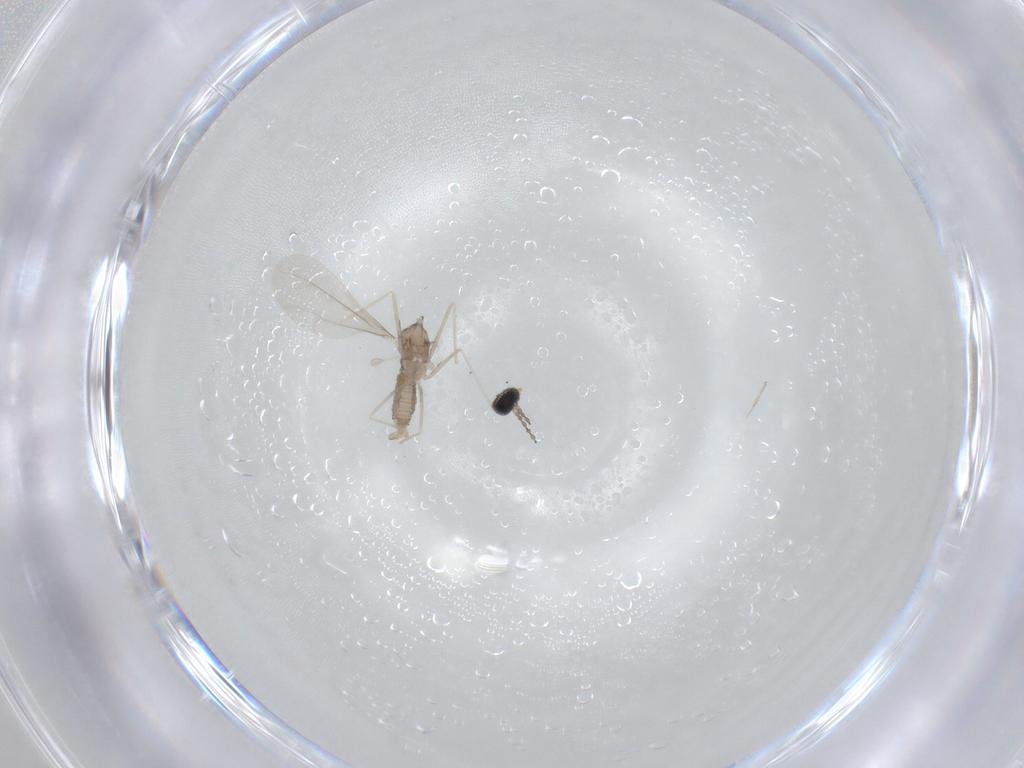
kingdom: Animalia
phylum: Arthropoda
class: Insecta
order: Diptera
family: Cecidomyiidae
